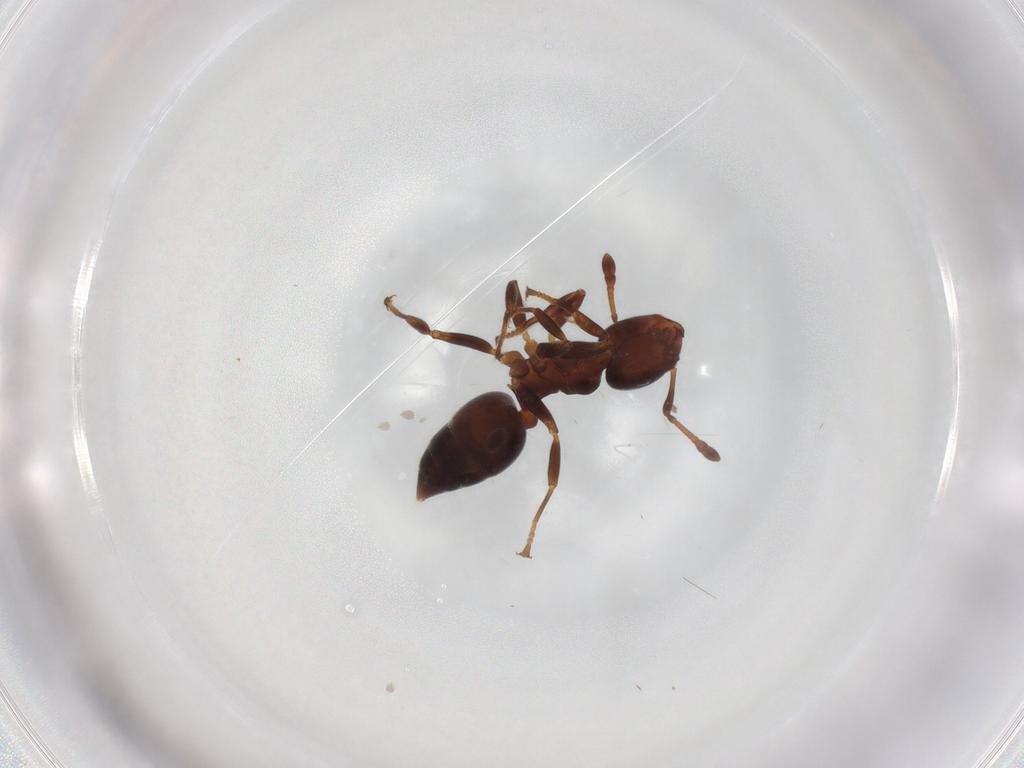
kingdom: Animalia
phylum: Arthropoda
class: Insecta
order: Hymenoptera
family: Formicidae
